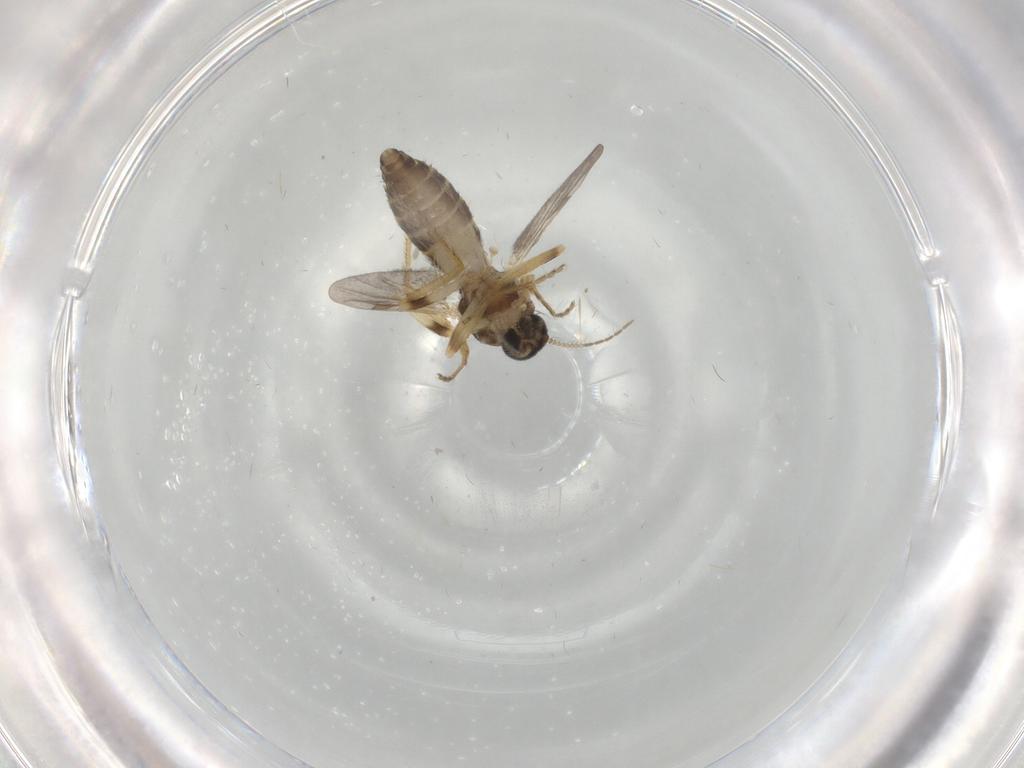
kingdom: Animalia
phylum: Arthropoda
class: Insecta
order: Diptera
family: Ceratopogonidae
